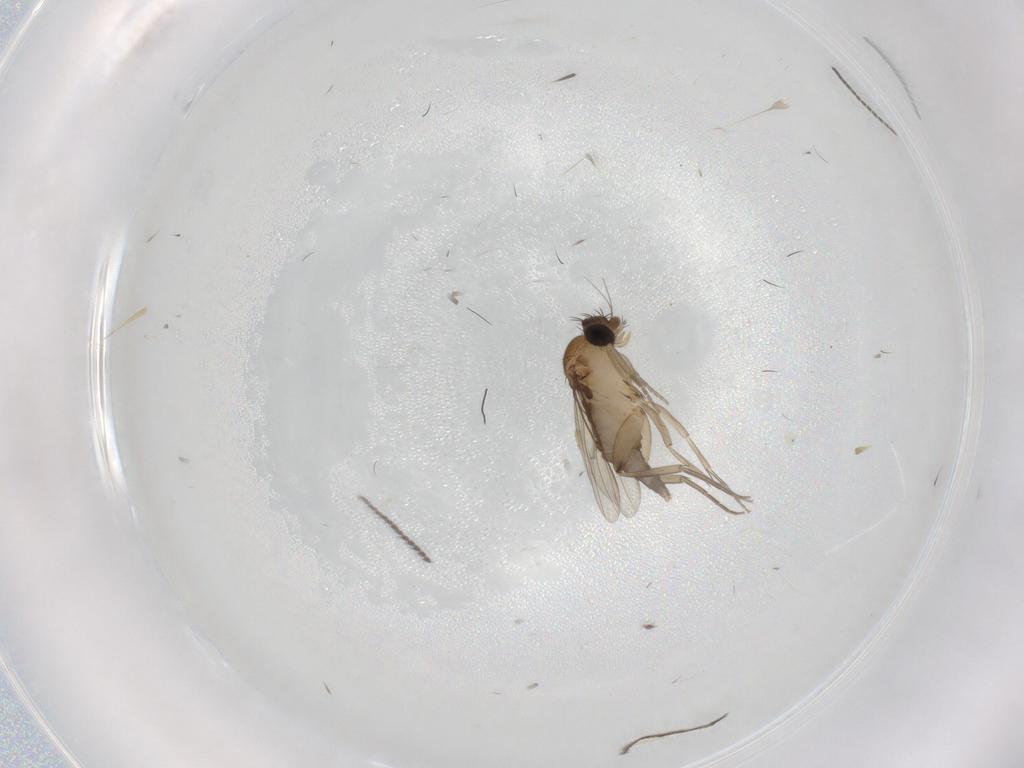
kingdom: Animalia
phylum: Arthropoda
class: Insecta
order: Diptera
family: Phoridae
